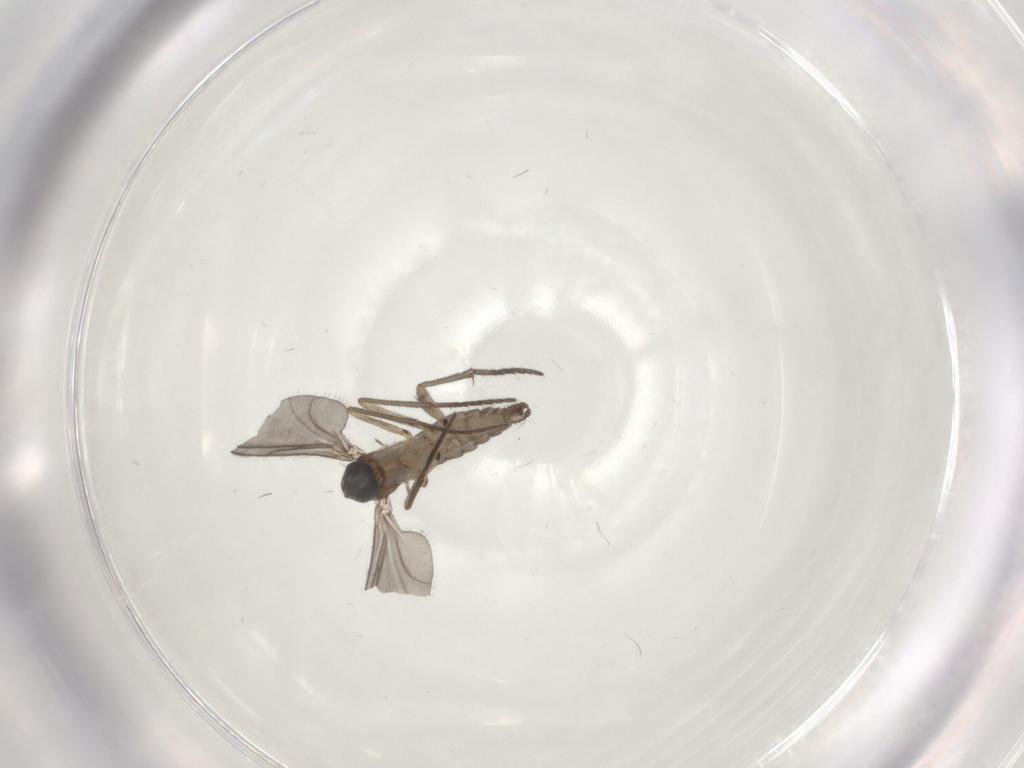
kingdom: Animalia
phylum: Arthropoda
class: Insecta
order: Diptera
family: Sciaridae
